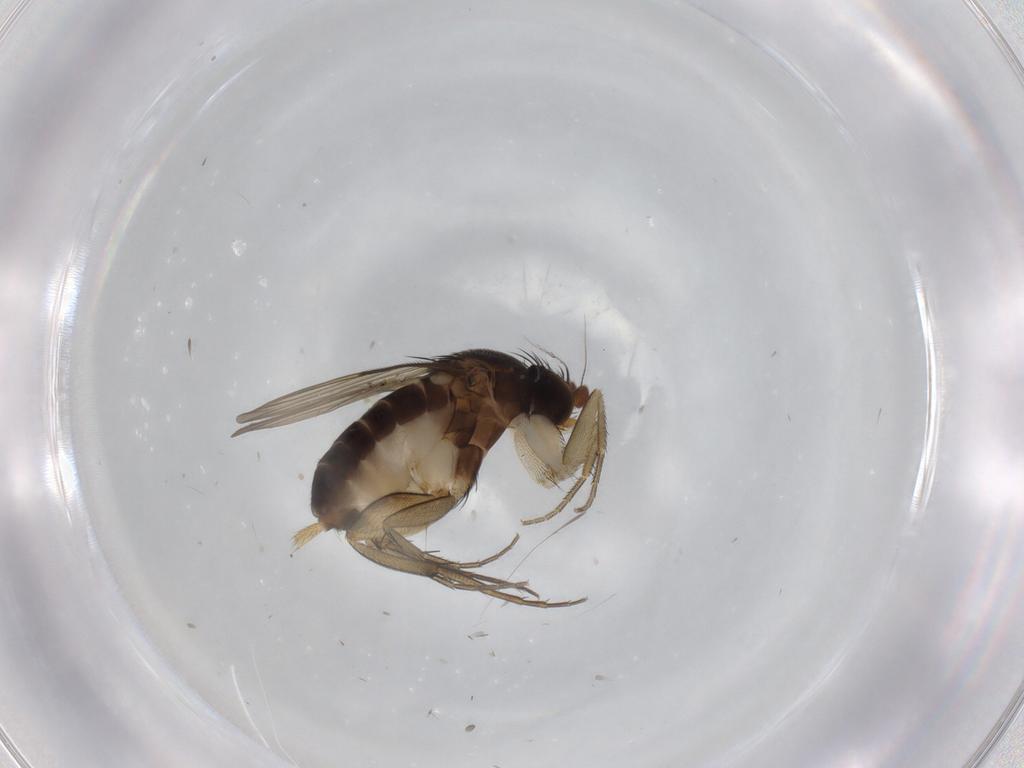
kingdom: Animalia
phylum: Arthropoda
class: Insecta
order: Diptera
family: Phoridae
